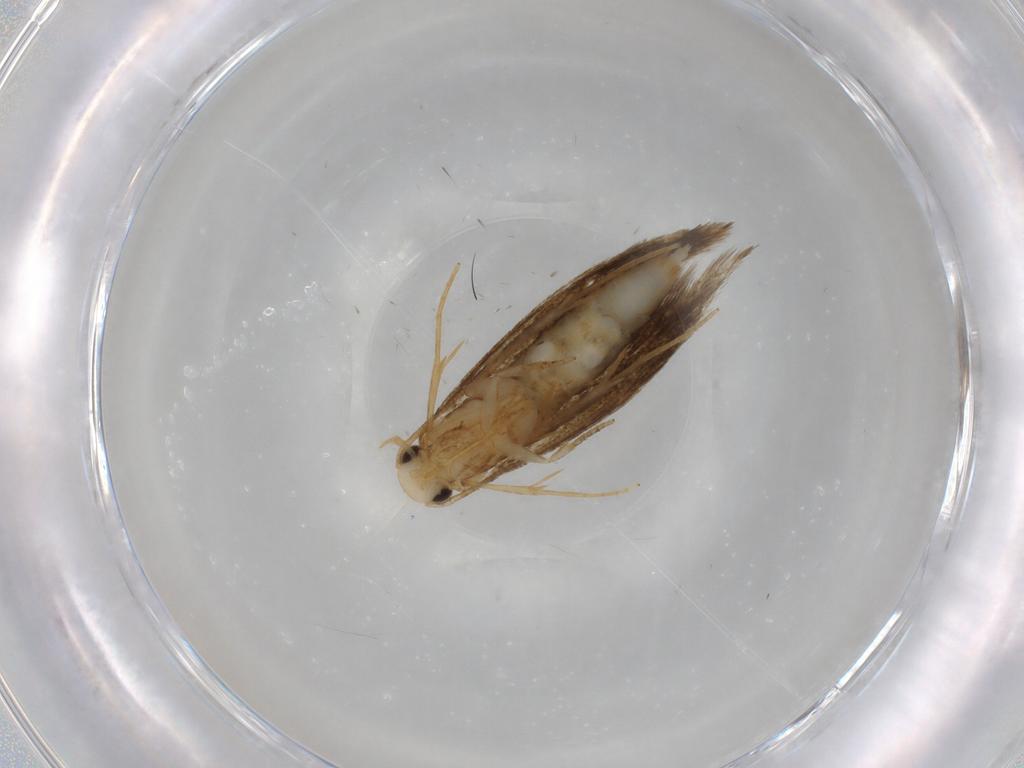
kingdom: Animalia
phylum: Arthropoda
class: Insecta
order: Lepidoptera
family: Tineidae
